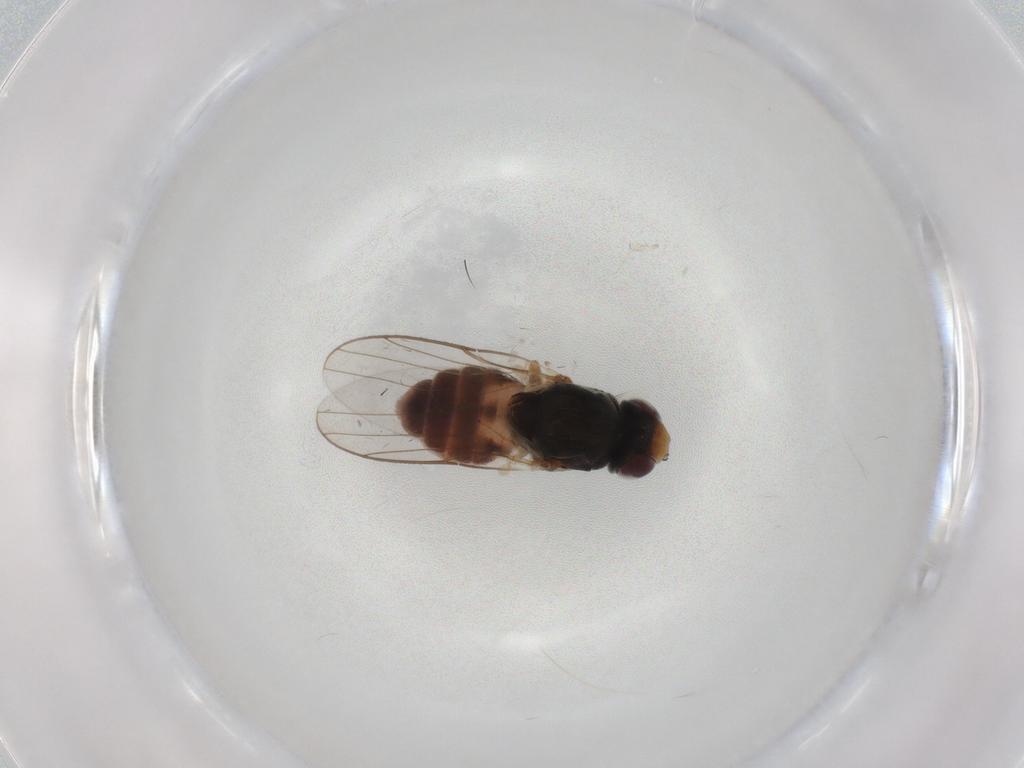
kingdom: Animalia
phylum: Arthropoda
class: Insecta
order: Diptera
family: Chloropidae
